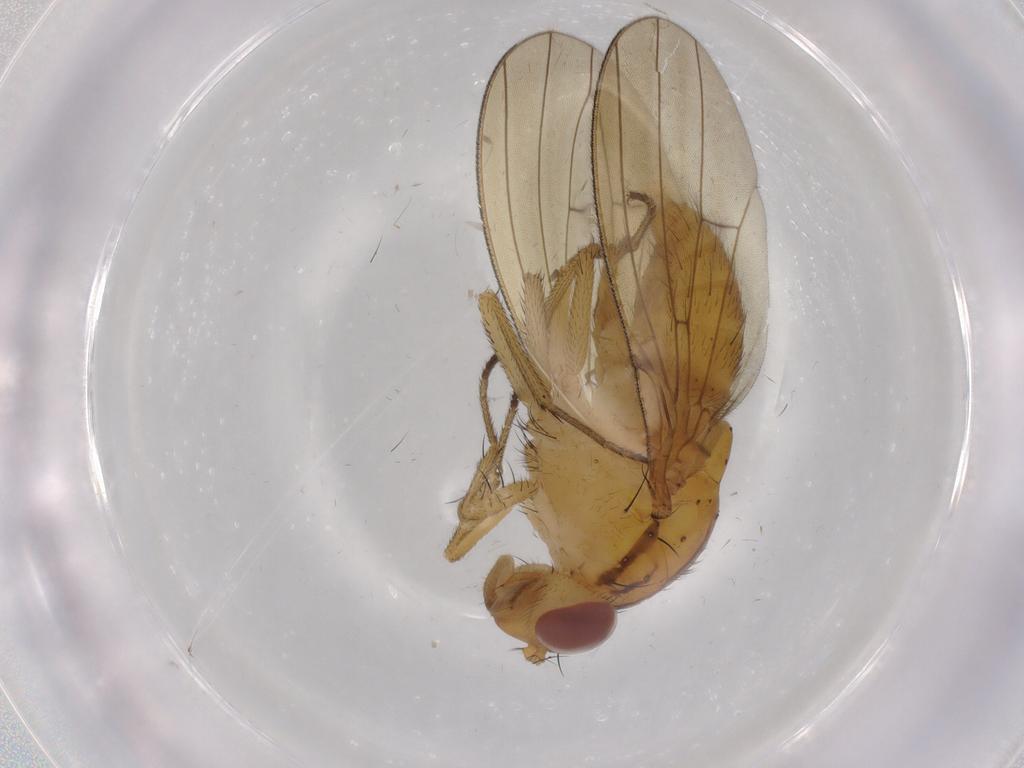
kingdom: Animalia
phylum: Arthropoda
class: Insecta
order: Diptera
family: Sciaridae
